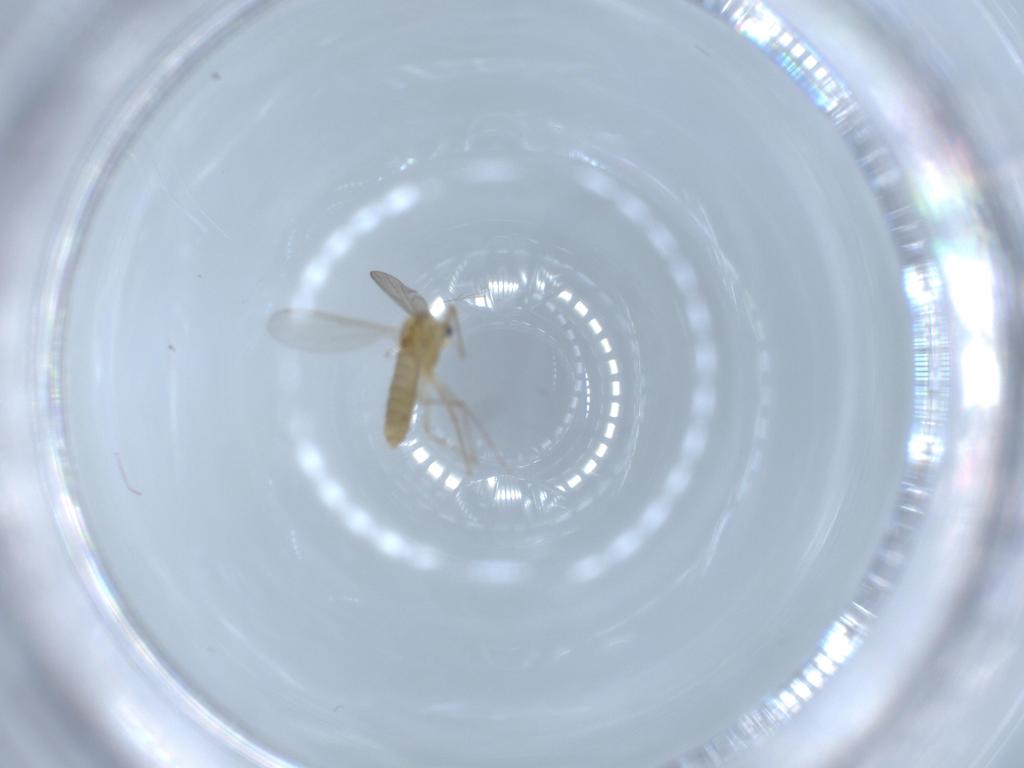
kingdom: Animalia
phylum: Arthropoda
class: Insecta
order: Diptera
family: Chironomidae
